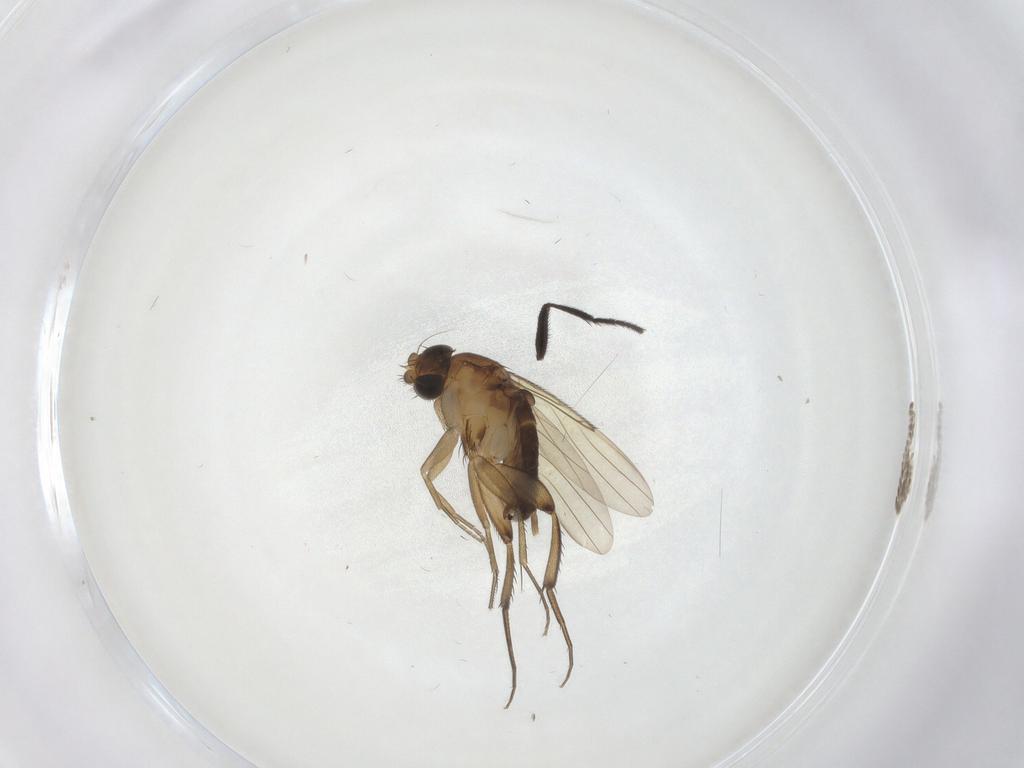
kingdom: Animalia
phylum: Arthropoda
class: Insecta
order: Diptera
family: Phoridae
